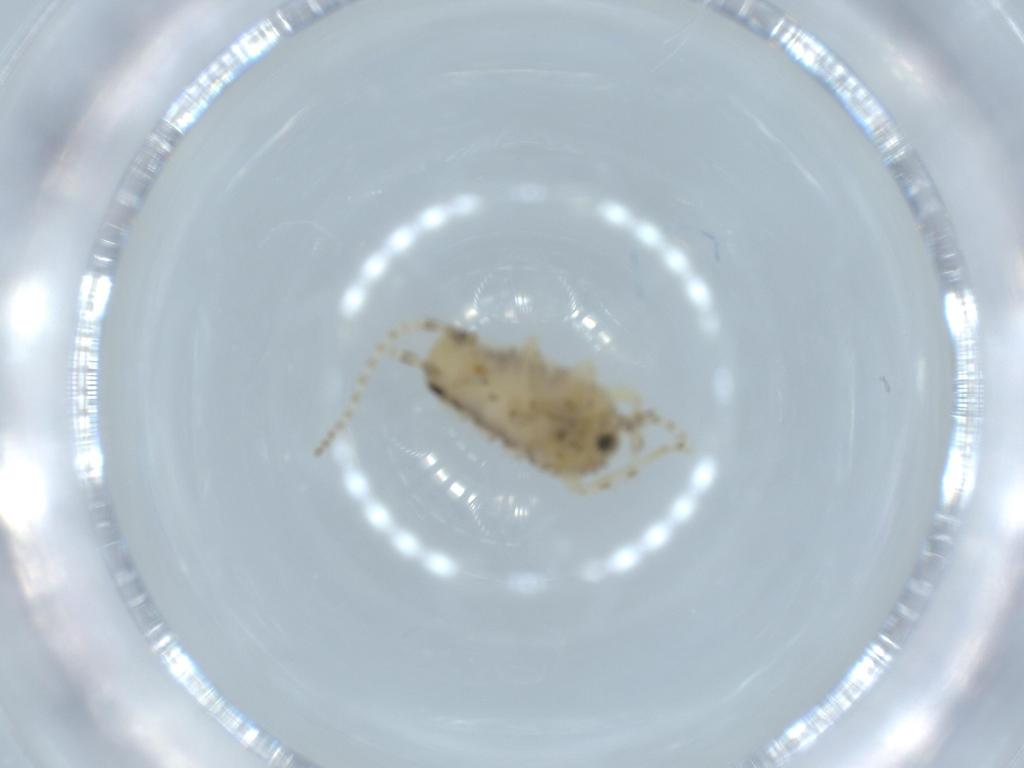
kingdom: Animalia
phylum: Arthropoda
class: Insecta
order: Blattodea
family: Ectobiidae
